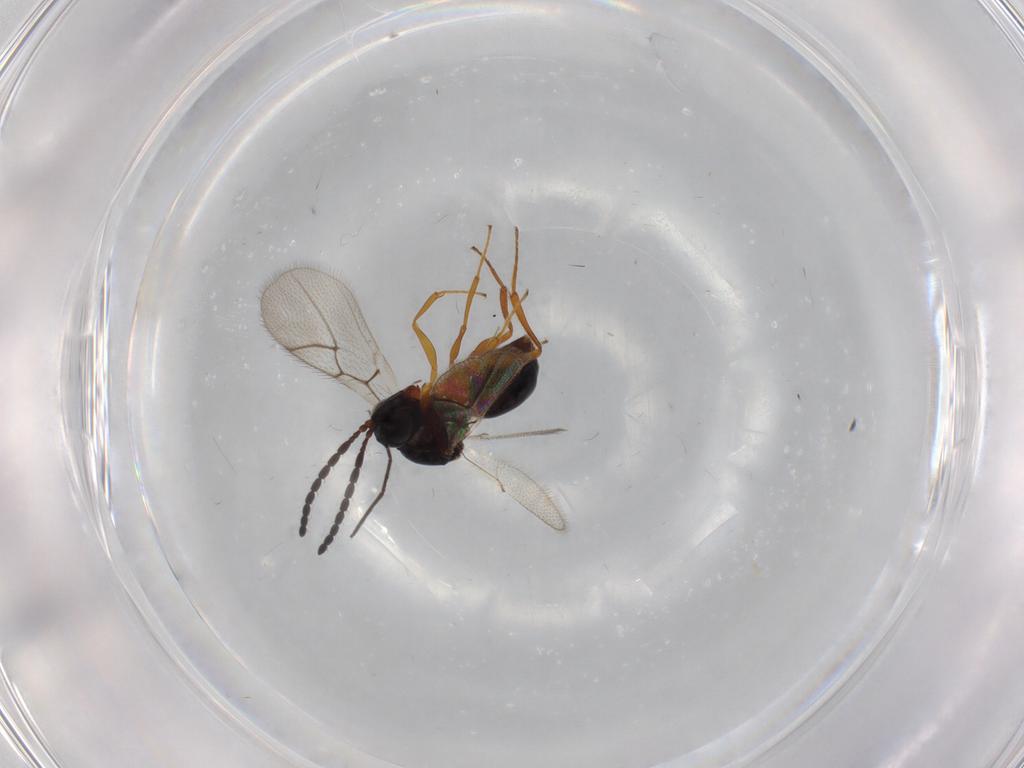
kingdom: Animalia
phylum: Arthropoda
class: Insecta
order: Hymenoptera
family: Figitidae
